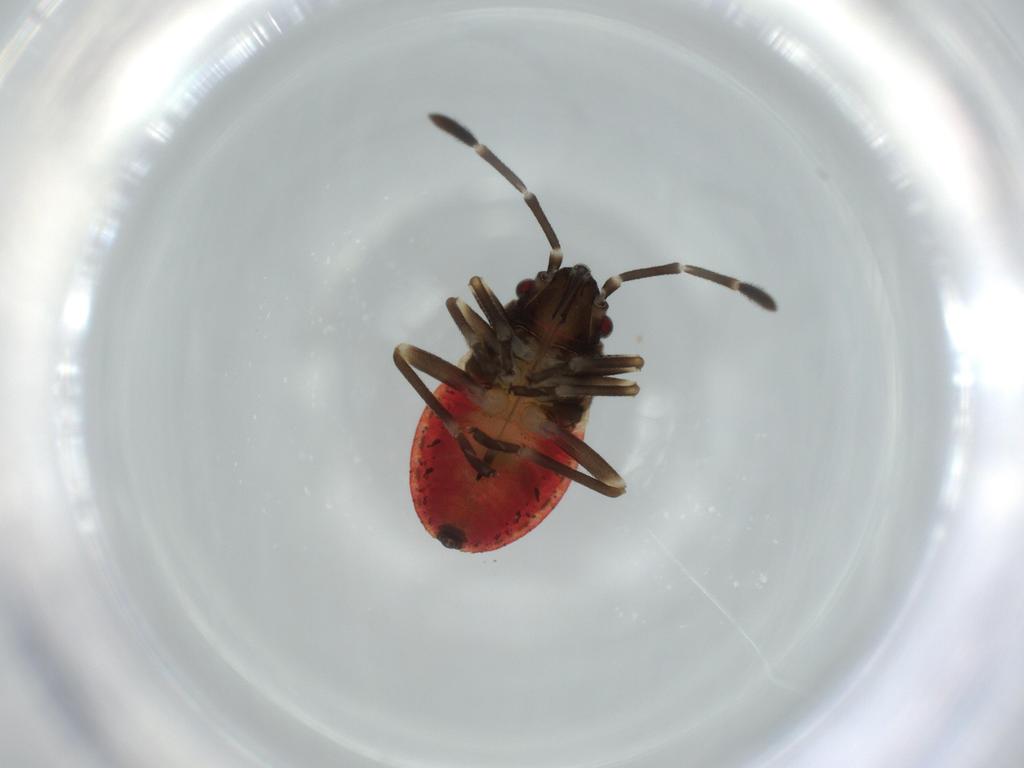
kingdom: Animalia
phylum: Arthropoda
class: Insecta
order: Hemiptera
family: Lygaeidae
